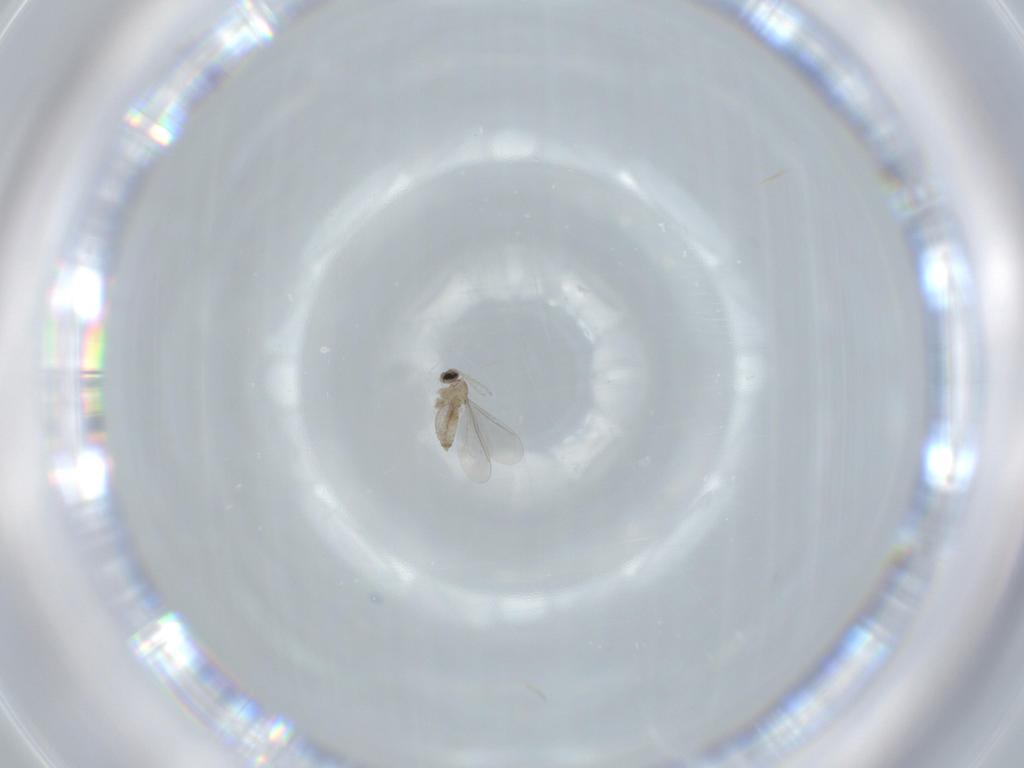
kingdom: Animalia
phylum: Arthropoda
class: Insecta
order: Diptera
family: Cecidomyiidae
